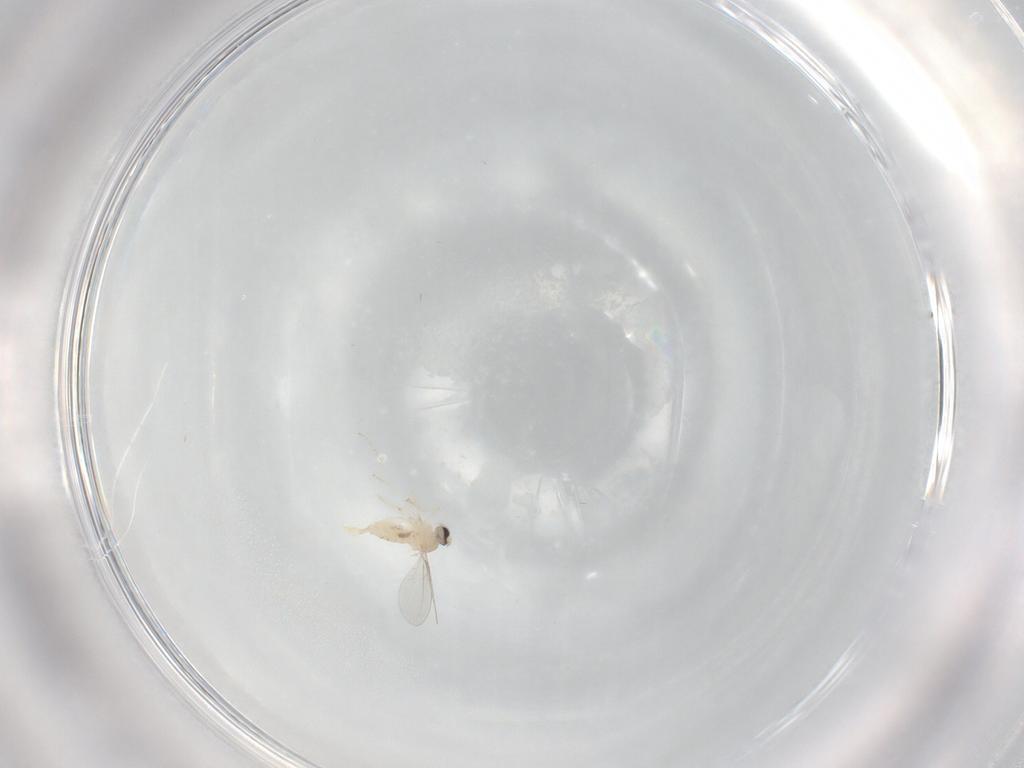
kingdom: Animalia
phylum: Arthropoda
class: Insecta
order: Diptera
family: Cecidomyiidae
